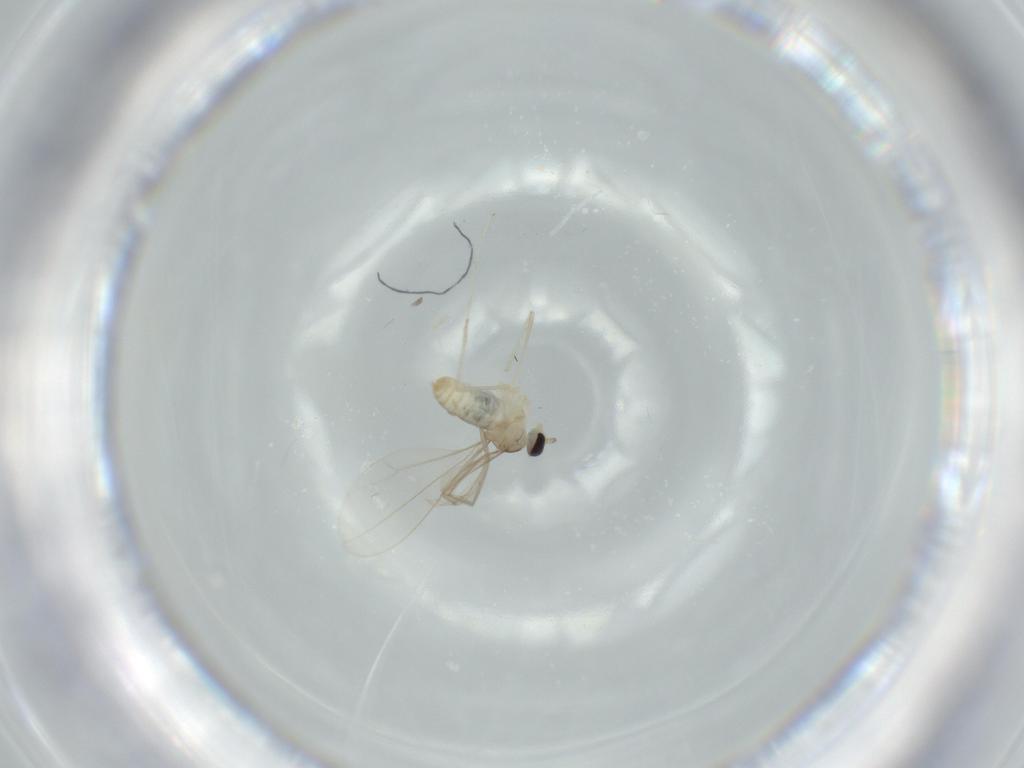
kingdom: Animalia
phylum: Arthropoda
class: Insecta
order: Diptera
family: Cecidomyiidae
